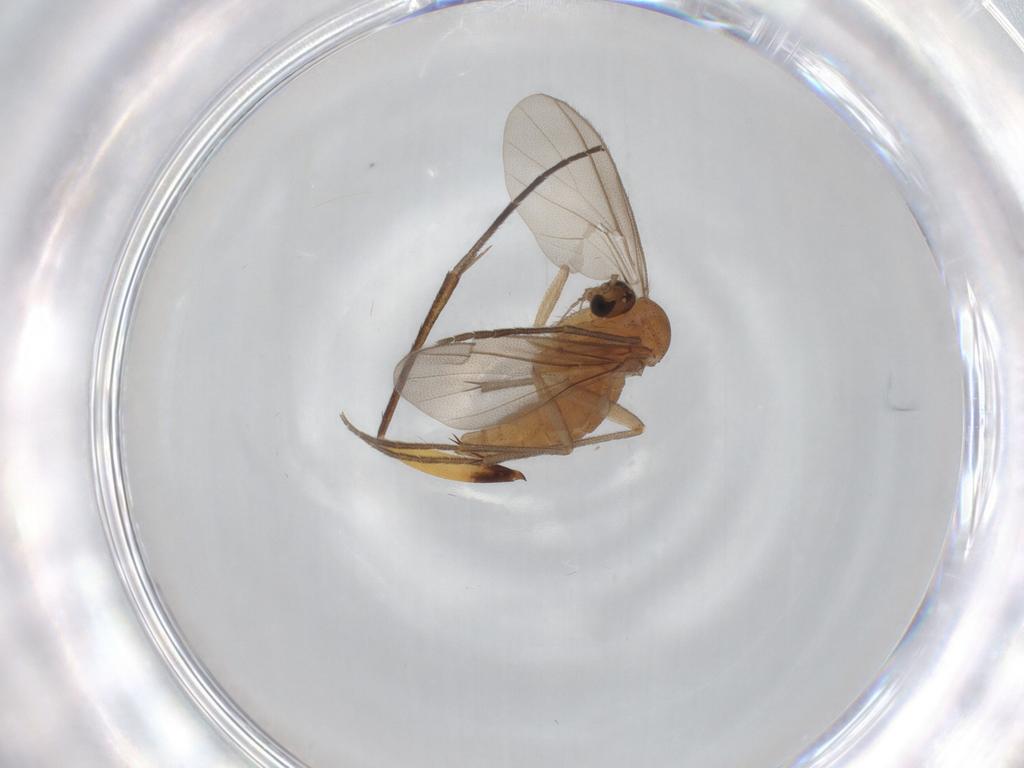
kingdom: Animalia
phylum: Arthropoda
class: Insecta
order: Diptera
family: Diadocidiidae
